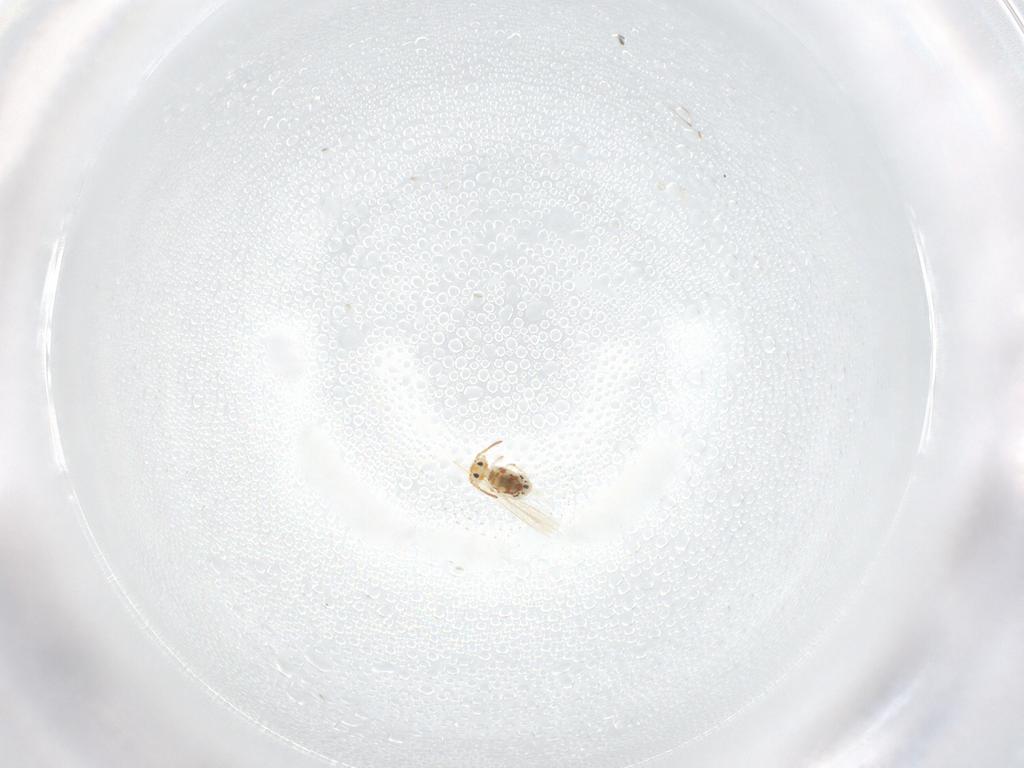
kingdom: Animalia
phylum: Arthropoda
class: Collembola
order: Symphypleona
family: Bourletiellidae
